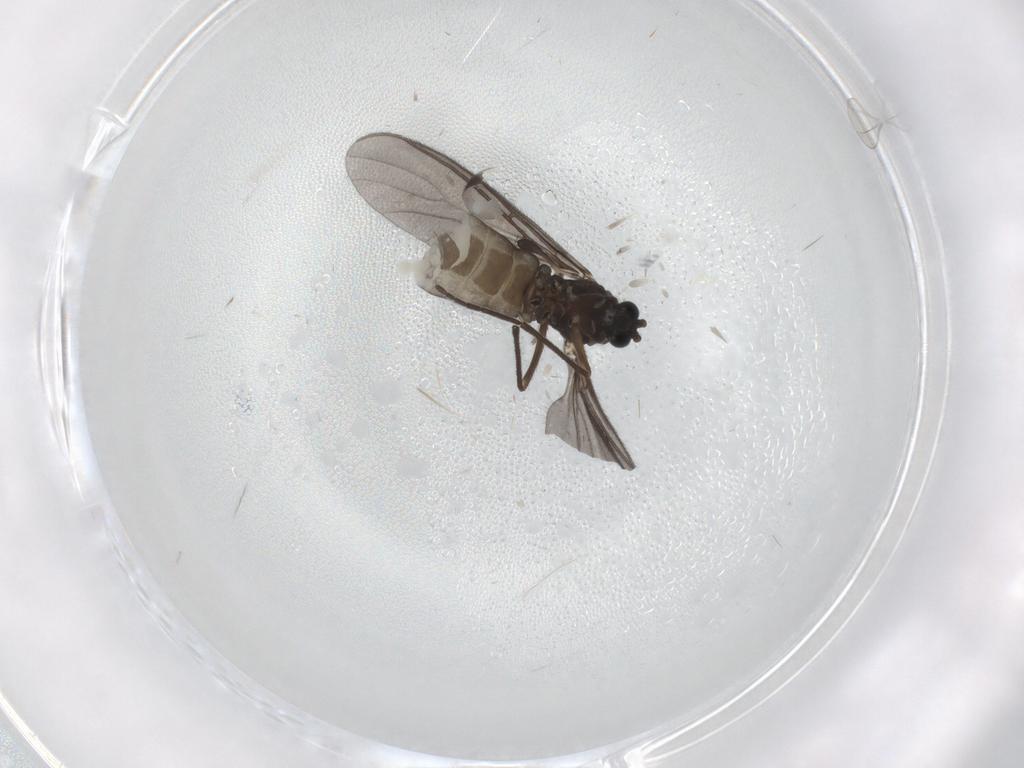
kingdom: Animalia
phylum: Arthropoda
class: Insecta
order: Diptera
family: Sciaridae
